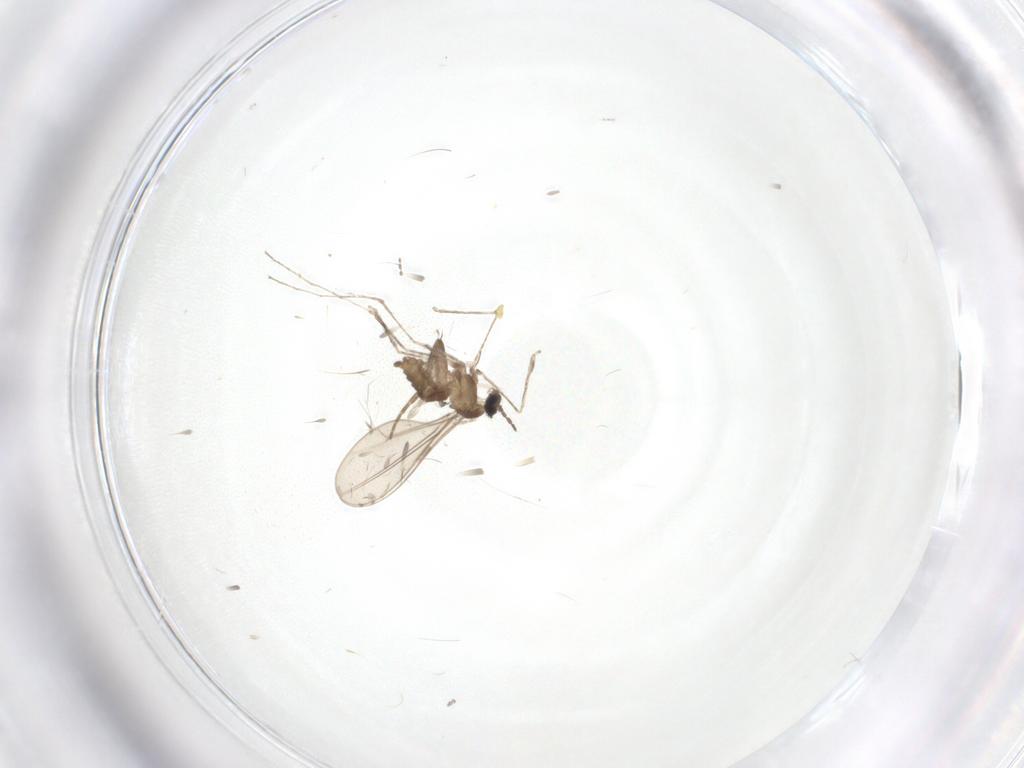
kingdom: Animalia
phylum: Arthropoda
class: Insecta
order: Diptera
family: Cecidomyiidae
